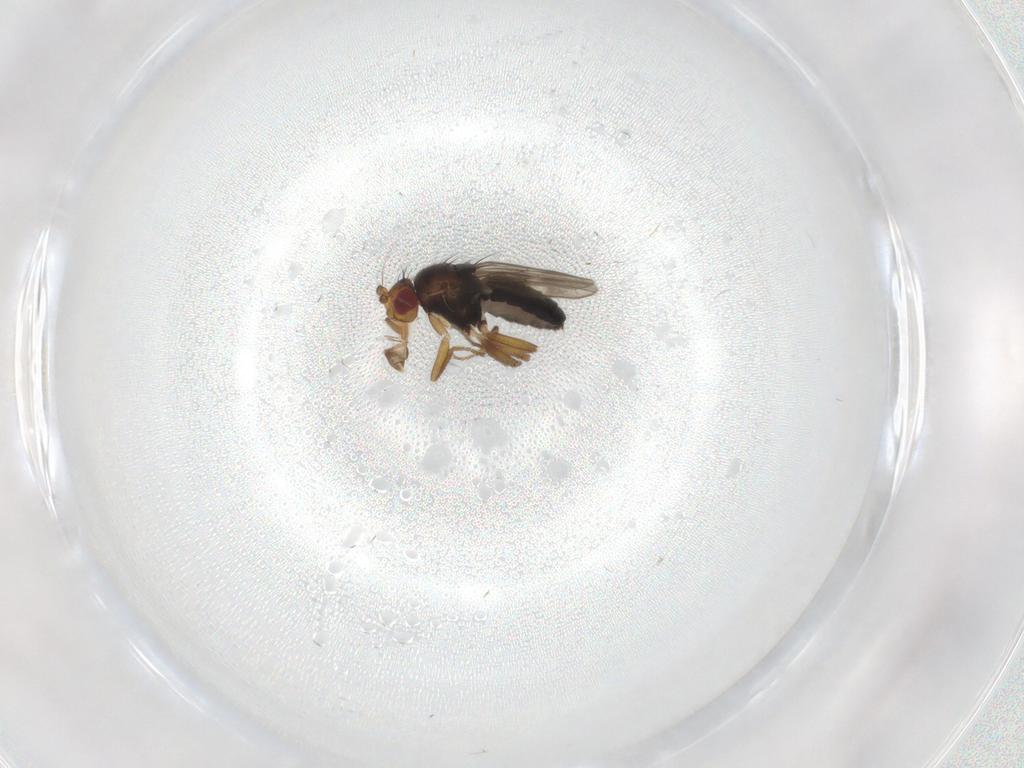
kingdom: Animalia
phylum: Arthropoda
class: Insecta
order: Diptera
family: Sphaeroceridae
